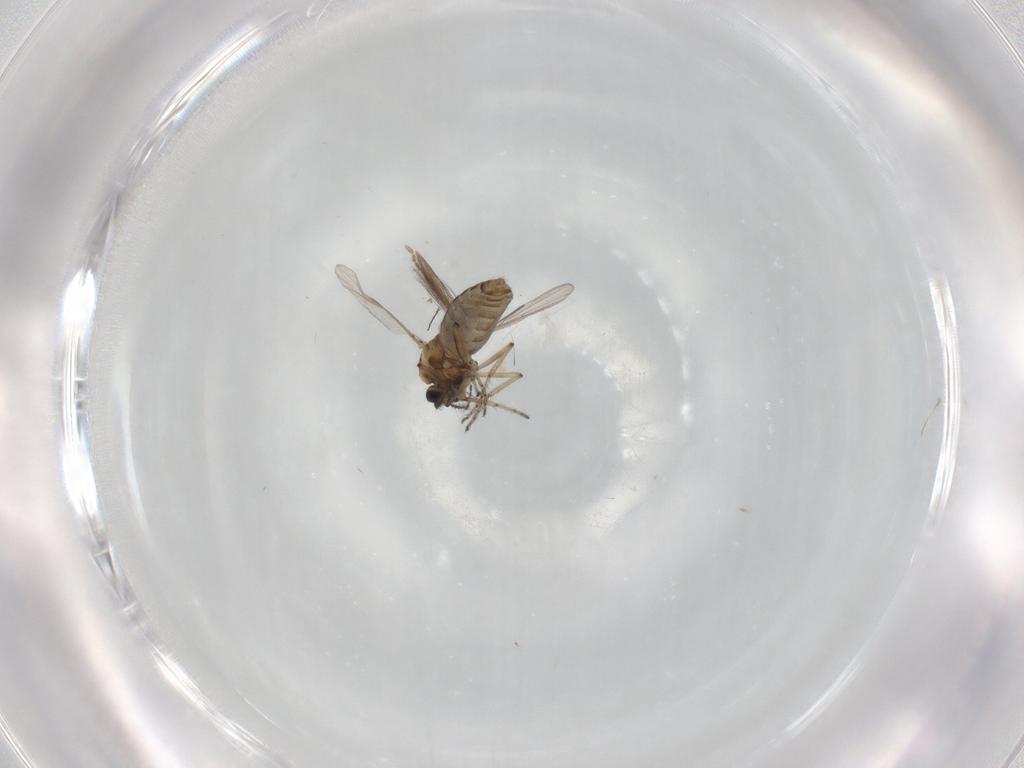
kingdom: Animalia
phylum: Arthropoda
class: Insecta
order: Diptera
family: Ceratopogonidae
